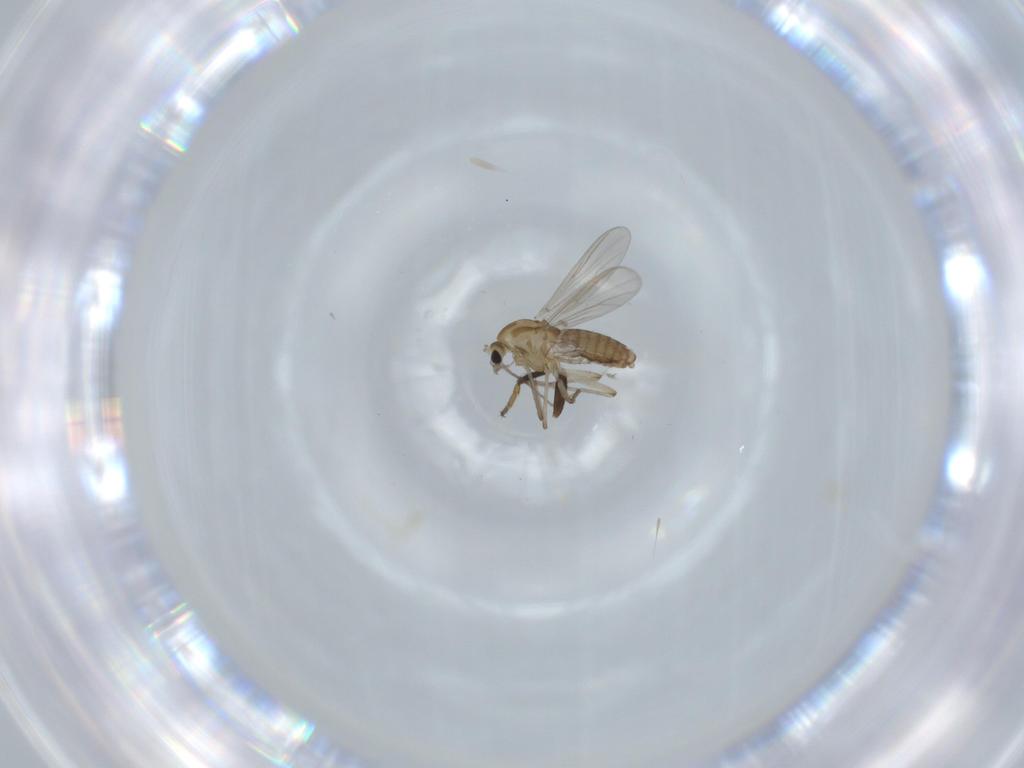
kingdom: Animalia
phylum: Arthropoda
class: Insecta
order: Diptera
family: Chironomidae
